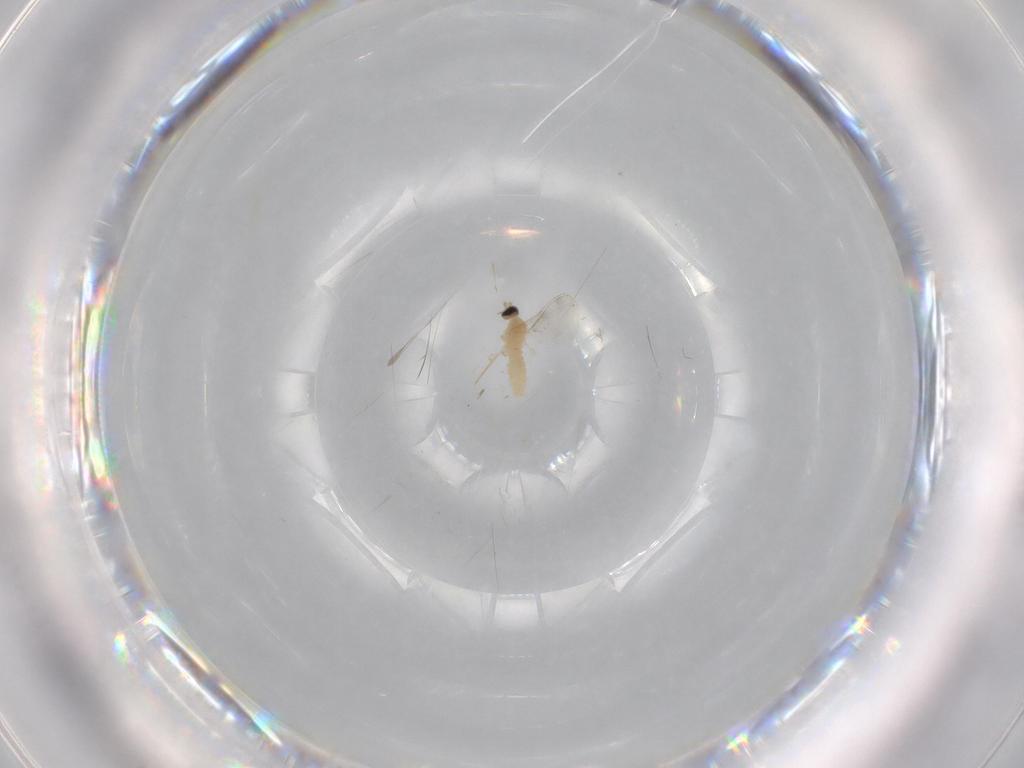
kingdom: Animalia
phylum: Arthropoda
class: Insecta
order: Diptera
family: Cecidomyiidae
